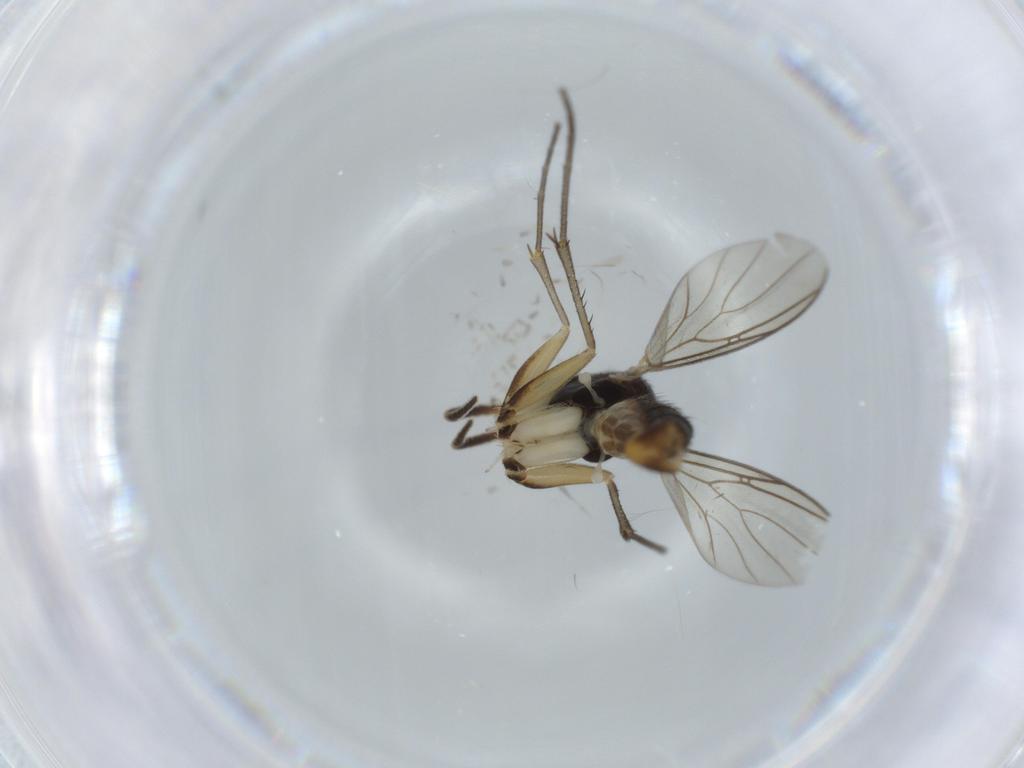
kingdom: Animalia
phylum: Arthropoda
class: Insecta
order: Diptera
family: Mycetophilidae
